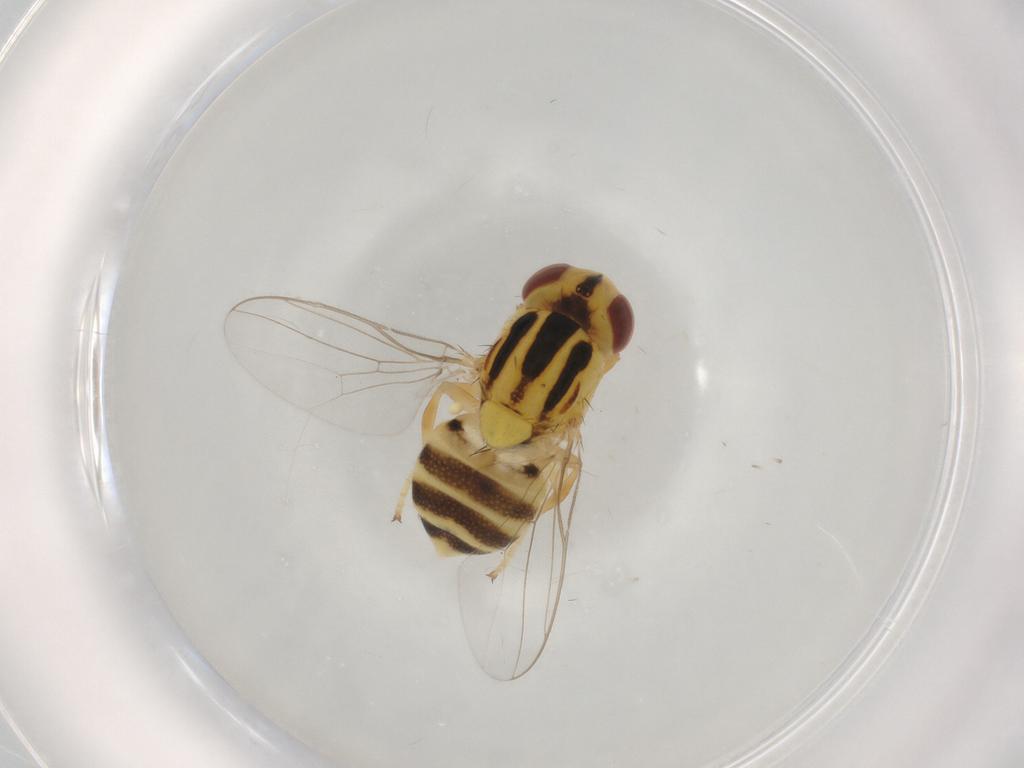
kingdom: Animalia
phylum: Arthropoda
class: Insecta
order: Diptera
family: Chloropidae
